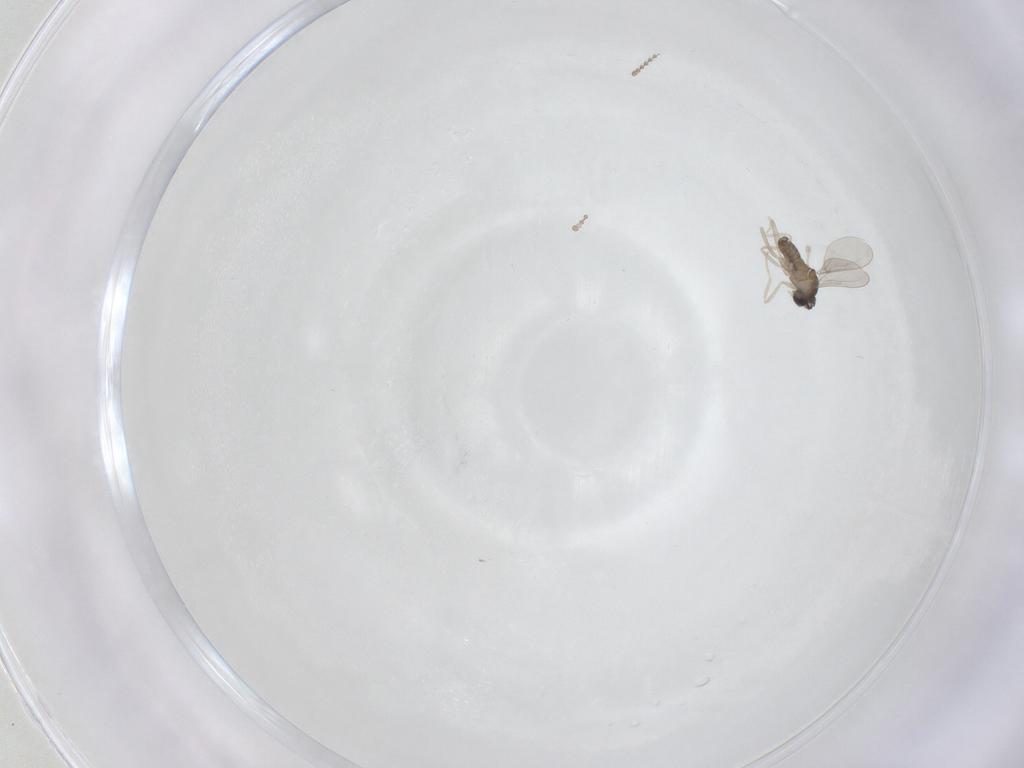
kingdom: Animalia
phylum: Arthropoda
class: Insecta
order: Diptera
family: Cecidomyiidae
